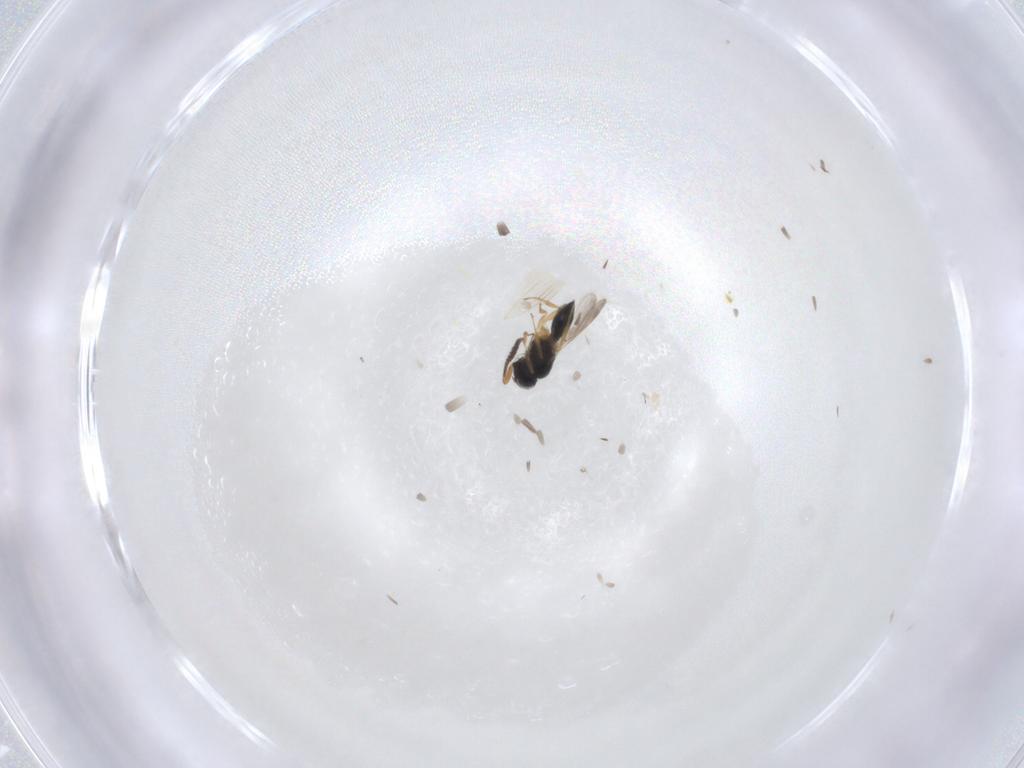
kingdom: Animalia
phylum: Arthropoda
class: Insecta
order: Hymenoptera
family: Scelionidae
